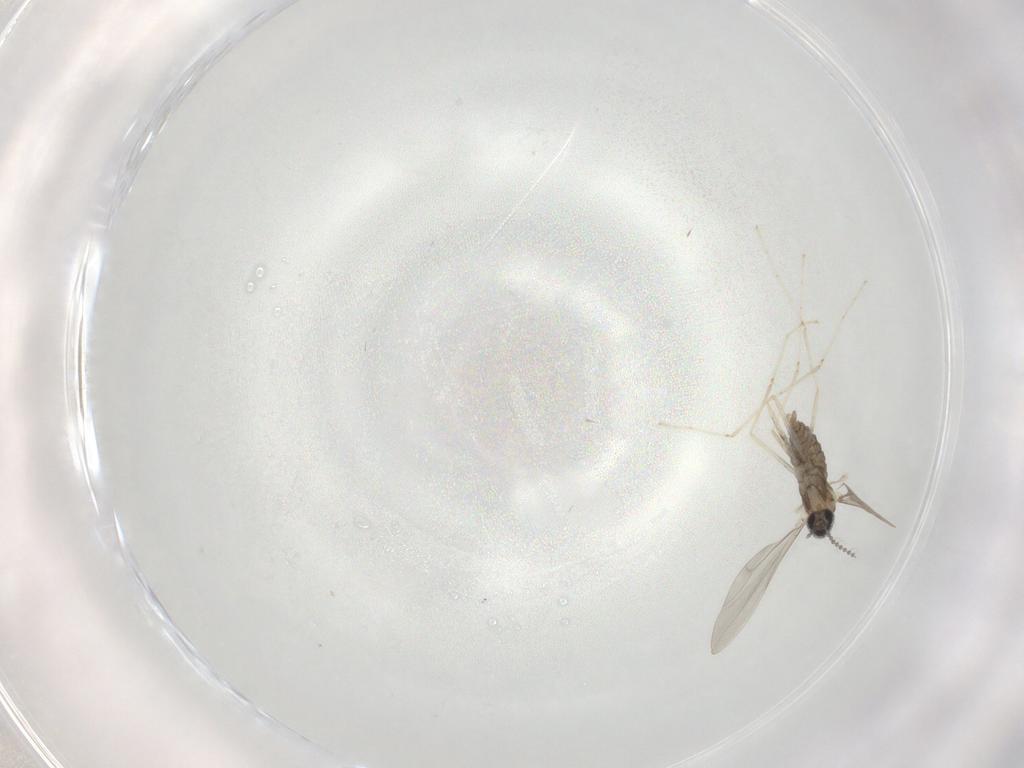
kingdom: Animalia
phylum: Arthropoda
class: Insecta
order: Diptera
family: Cecidomyiidae
